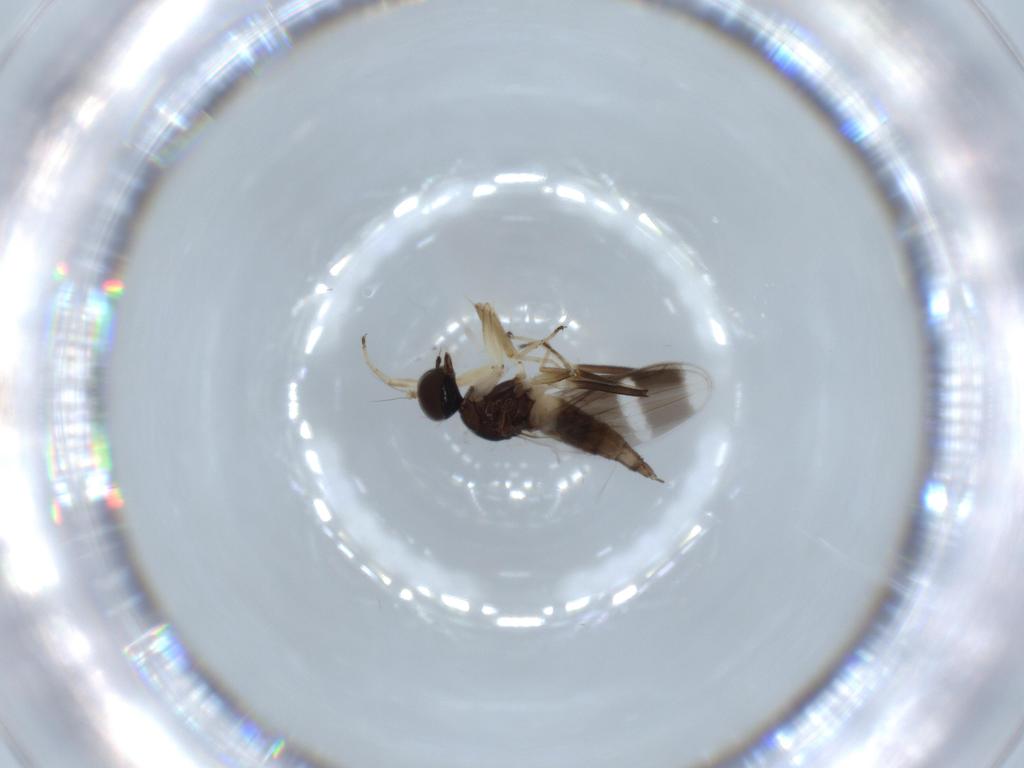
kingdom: Animalia
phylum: Arthropoda
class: Insecta
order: Diptera
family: Hybotidae
